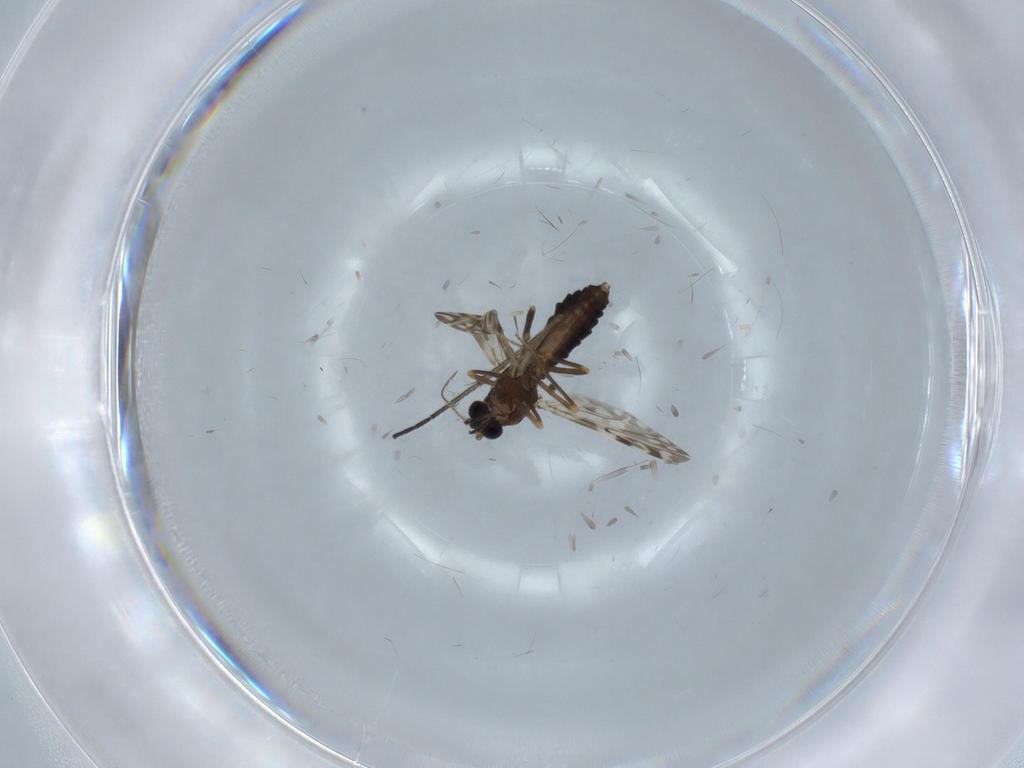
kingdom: Animalia
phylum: Arthropoda
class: Insecta
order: Diptera
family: Ceratopogonidae
